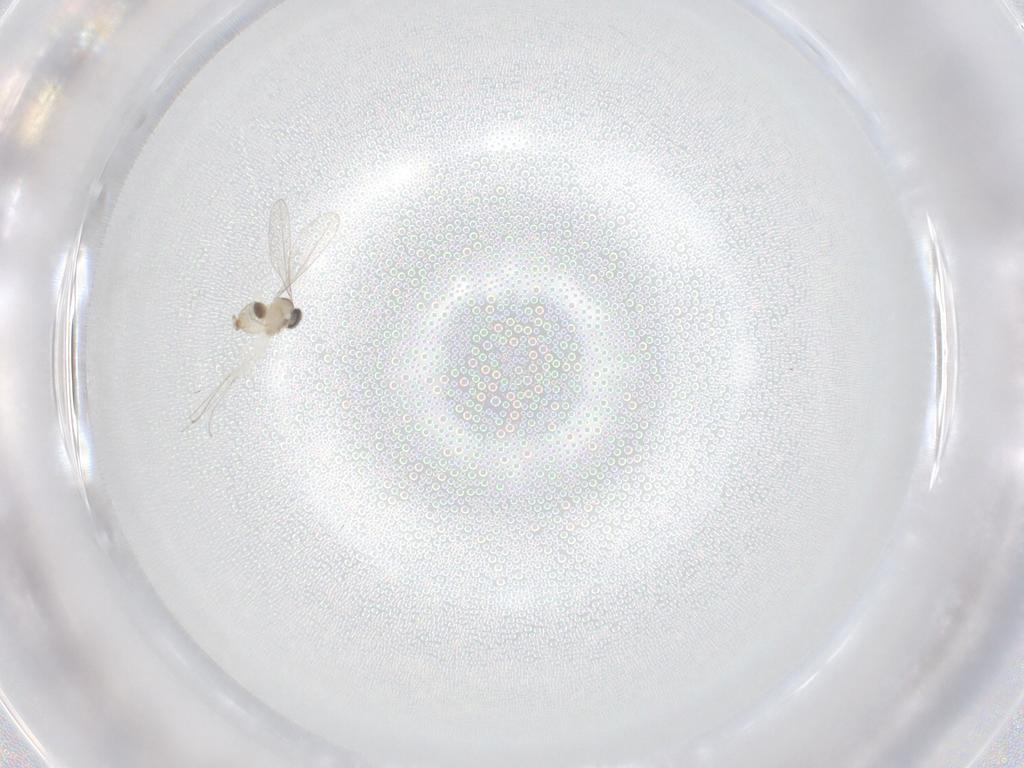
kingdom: Animalia
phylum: Arthropoda
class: Insecta
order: Diptera
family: Cecidomyiidae
